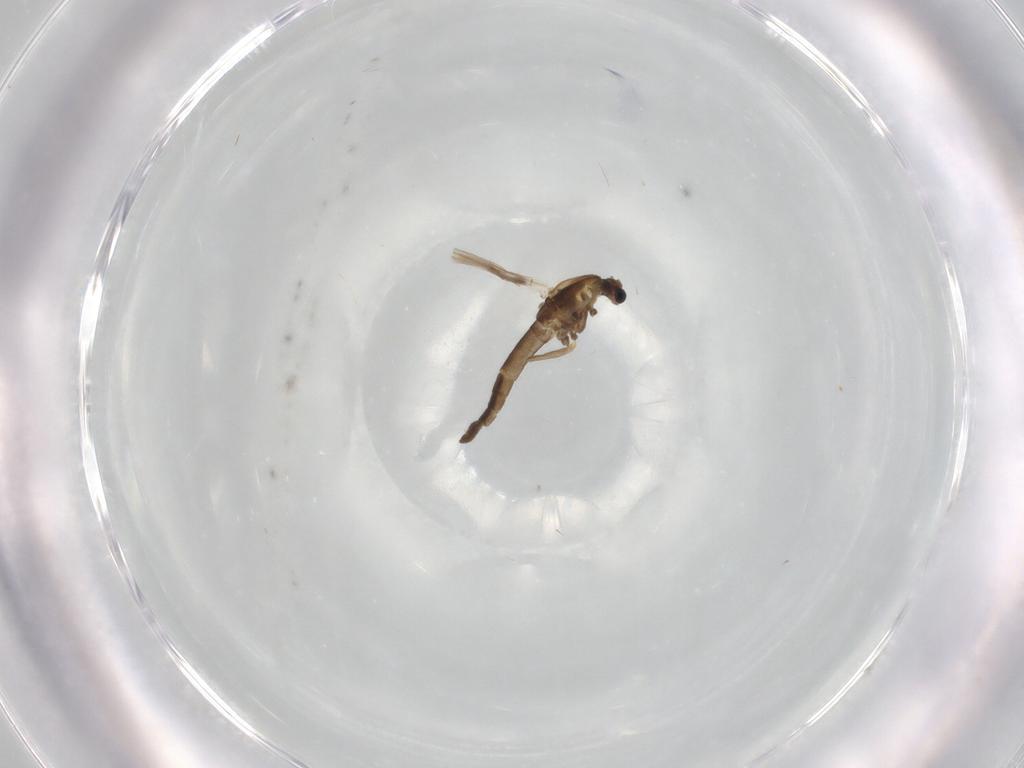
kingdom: Animalia
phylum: Arthropoda
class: Insecta
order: Diptera
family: Chironomidae
